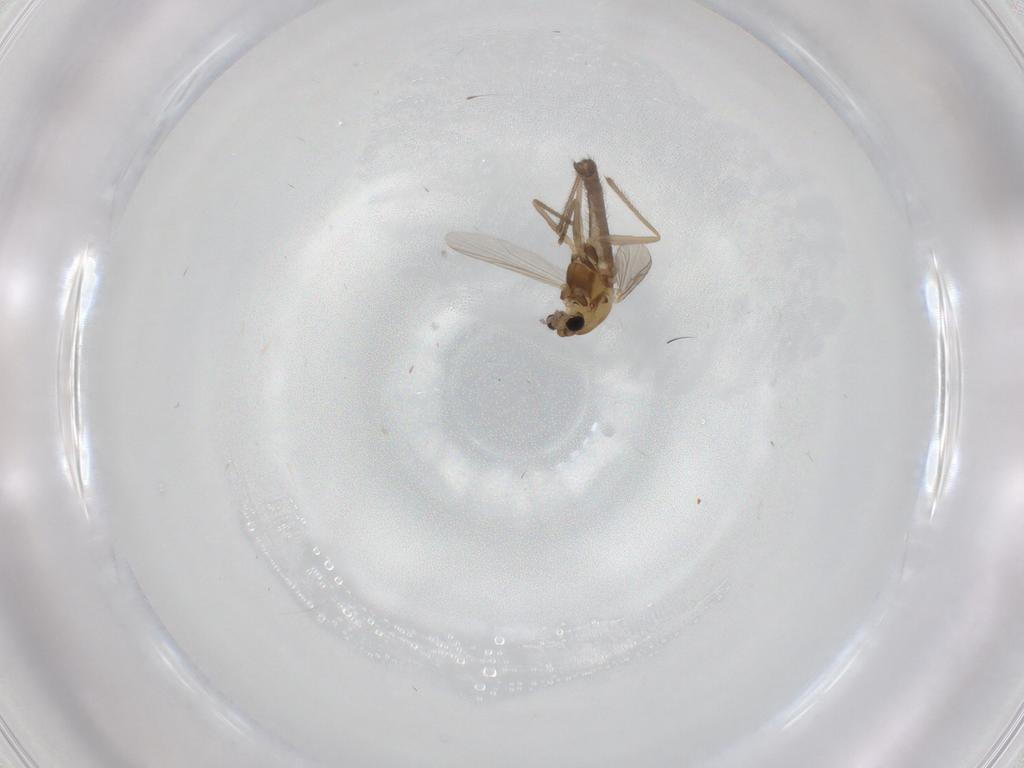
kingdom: Animalia
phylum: Arthropoda
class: Insecta
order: Diptera
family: Chironomidae
